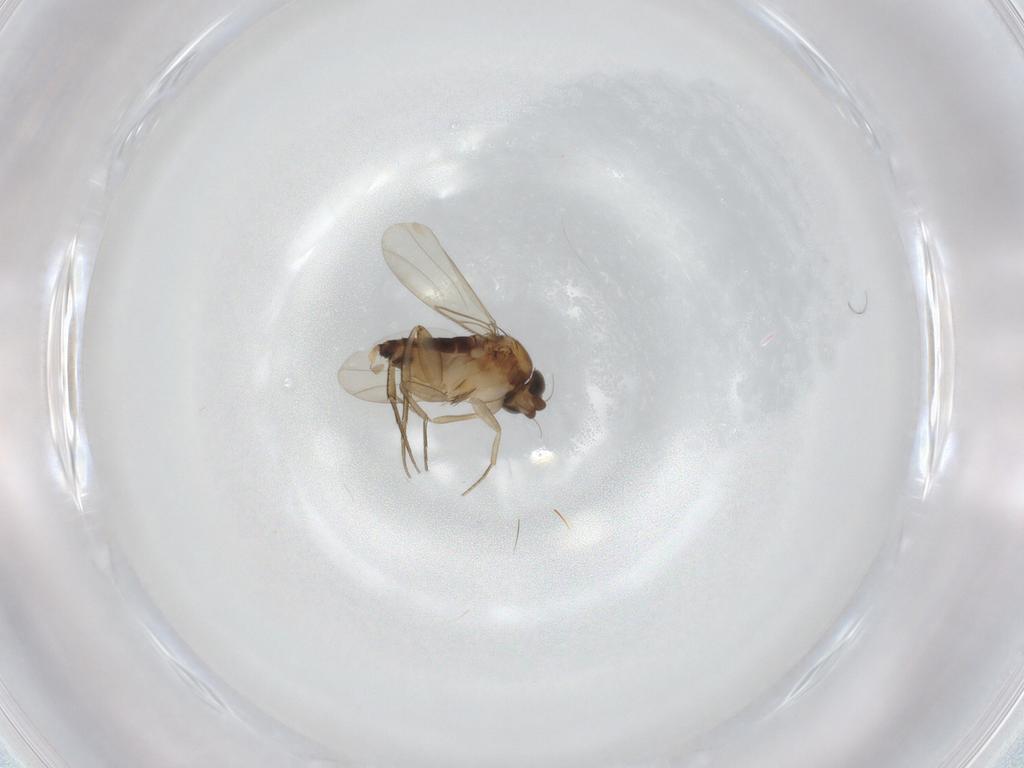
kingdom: Animalia
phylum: Arthropoda
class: Insecta
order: Diptera
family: Phoridae
